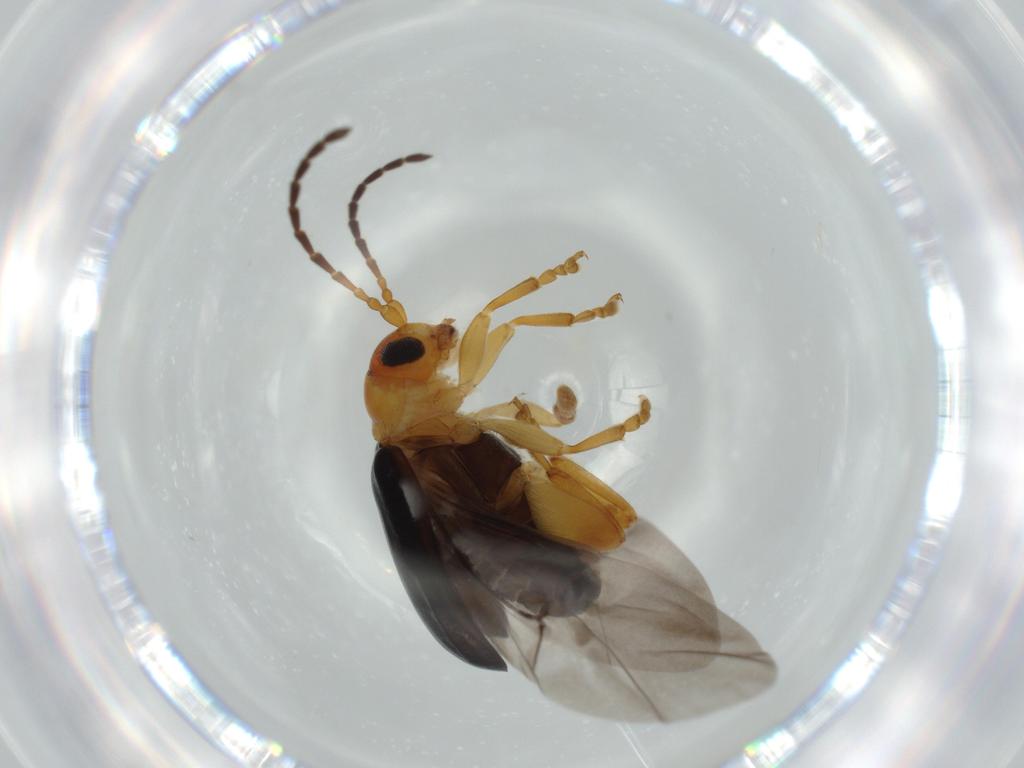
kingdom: Animalia
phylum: Arthropoda
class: Insecta
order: Coleoptera
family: Chrysomelidae
